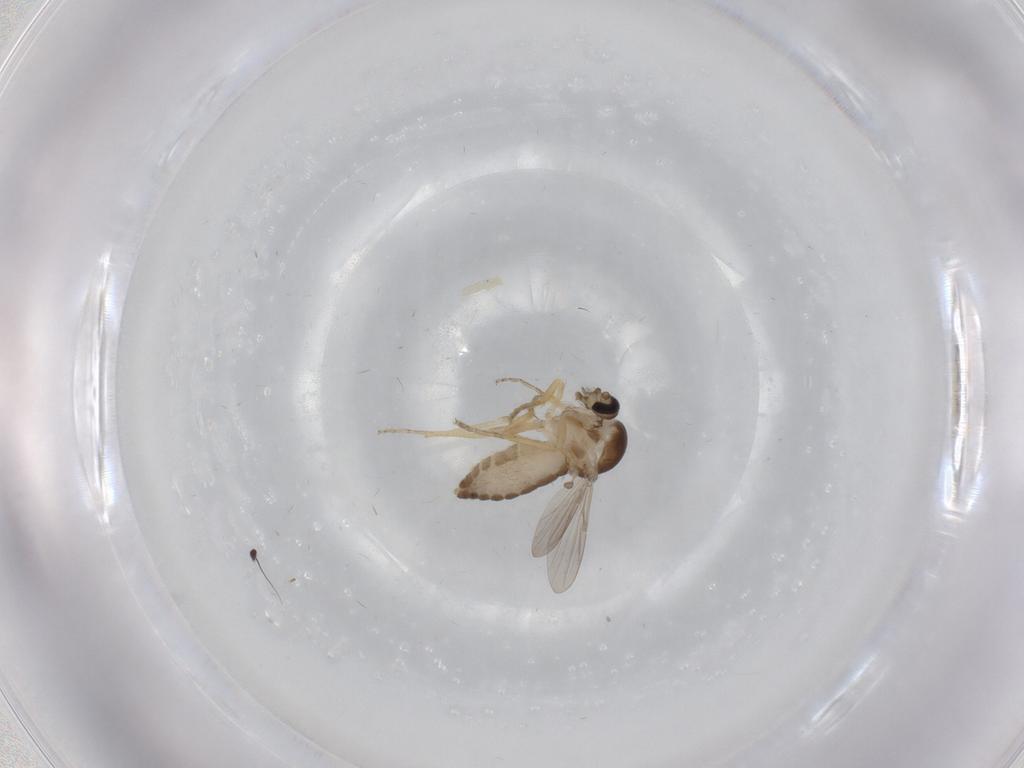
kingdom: Animalia
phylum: Arthropoda
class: Insecta
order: Diptera
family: Ceratopogonidae
